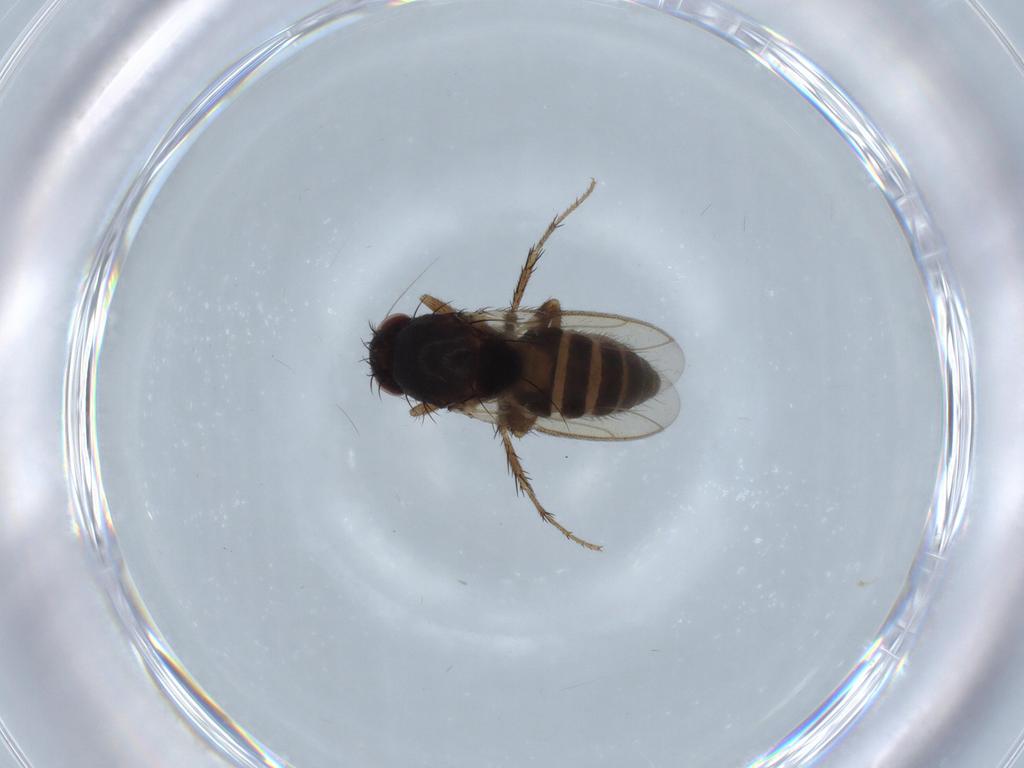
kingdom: Animalia
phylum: Arthropoda
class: Insecta
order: Diptera
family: Sphaeroceridae
